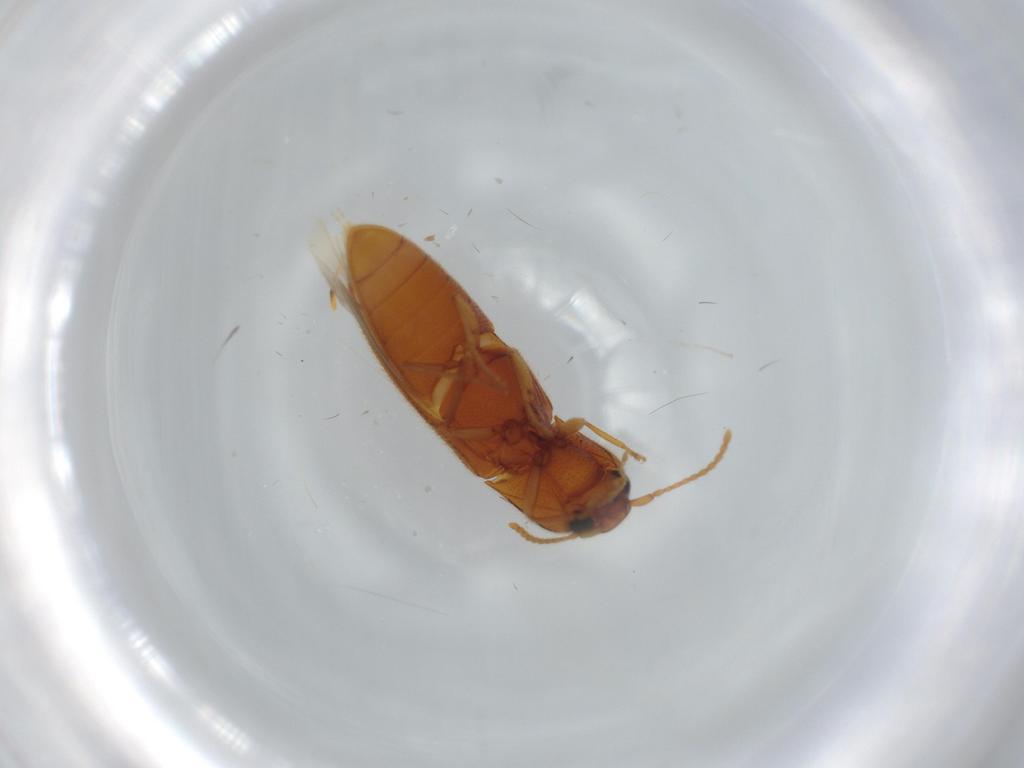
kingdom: Animalia
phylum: Arthropoda
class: Insecta
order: Coleoptera
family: Elateridae
